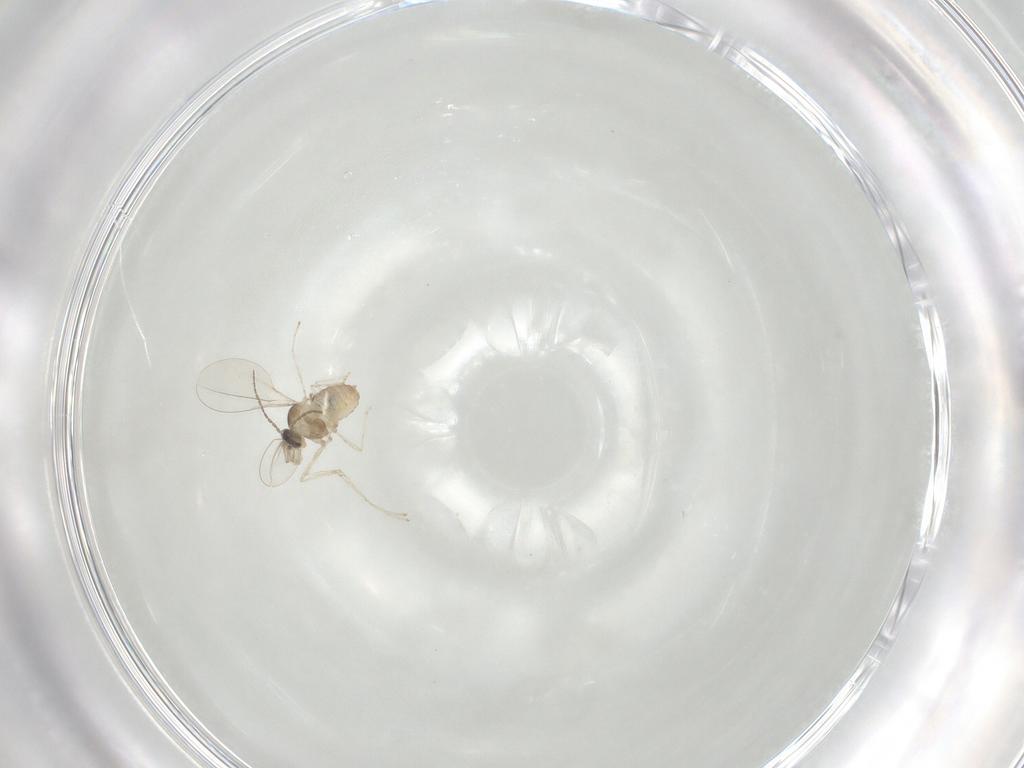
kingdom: Animalia
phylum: Arthropoda
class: Insecta
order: Diptera
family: Cecidomyiidae
